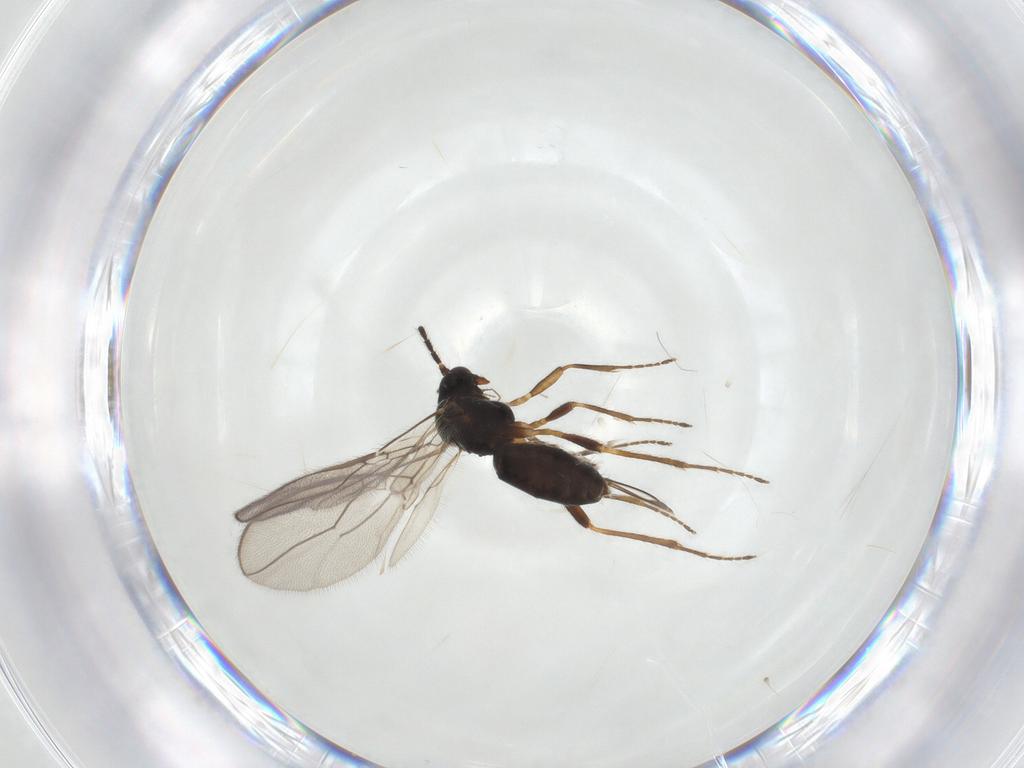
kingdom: Animalia
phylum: Arthropoda
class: Insecta
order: Hymenoptera
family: Braconidae
